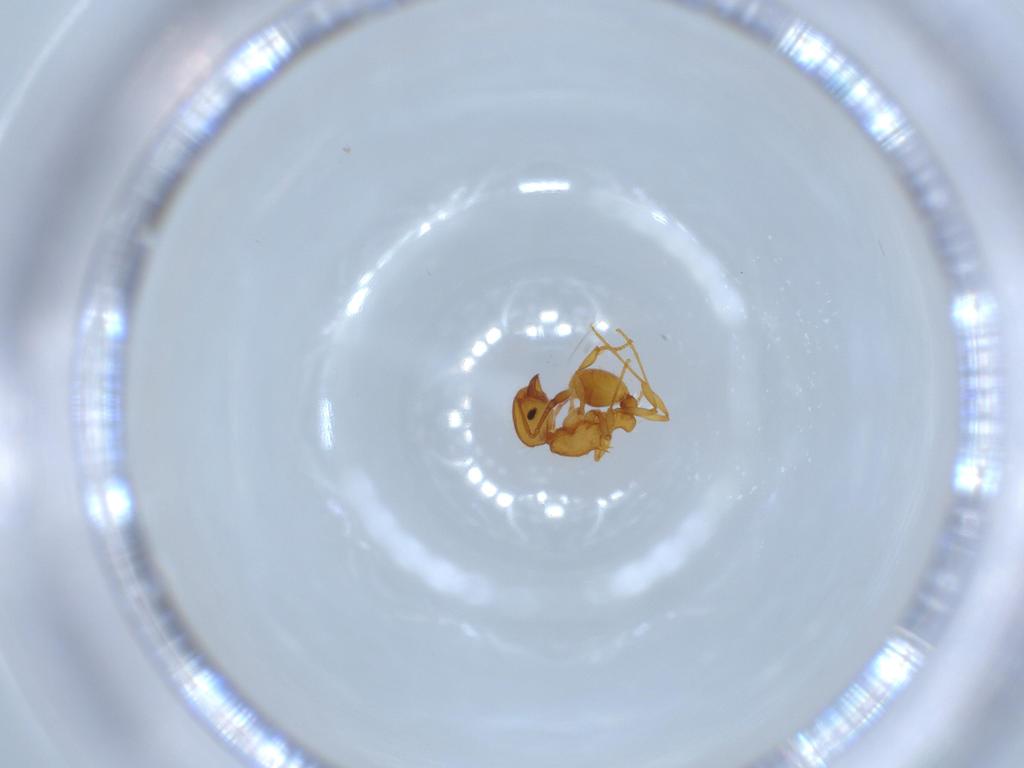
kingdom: Animalia
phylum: Arthropoda
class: Insecta
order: Hymenoptera
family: Formicidae
